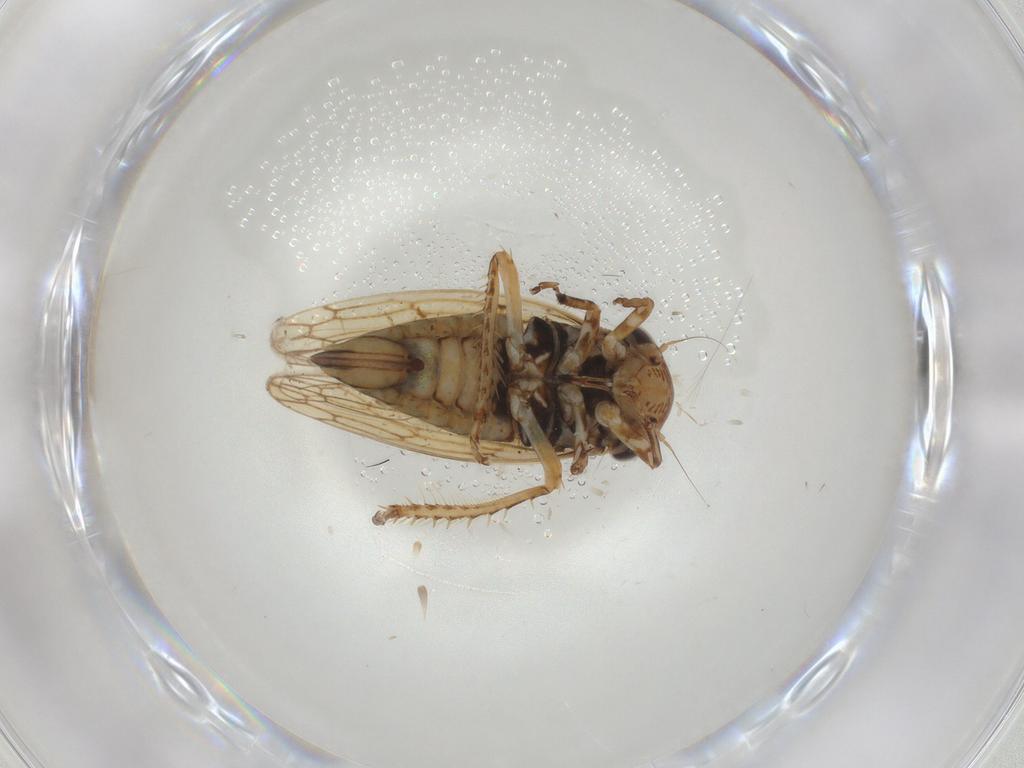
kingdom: Animalia
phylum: Arthropoda
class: Insecta
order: Hemiptera
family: Cicadellidae
